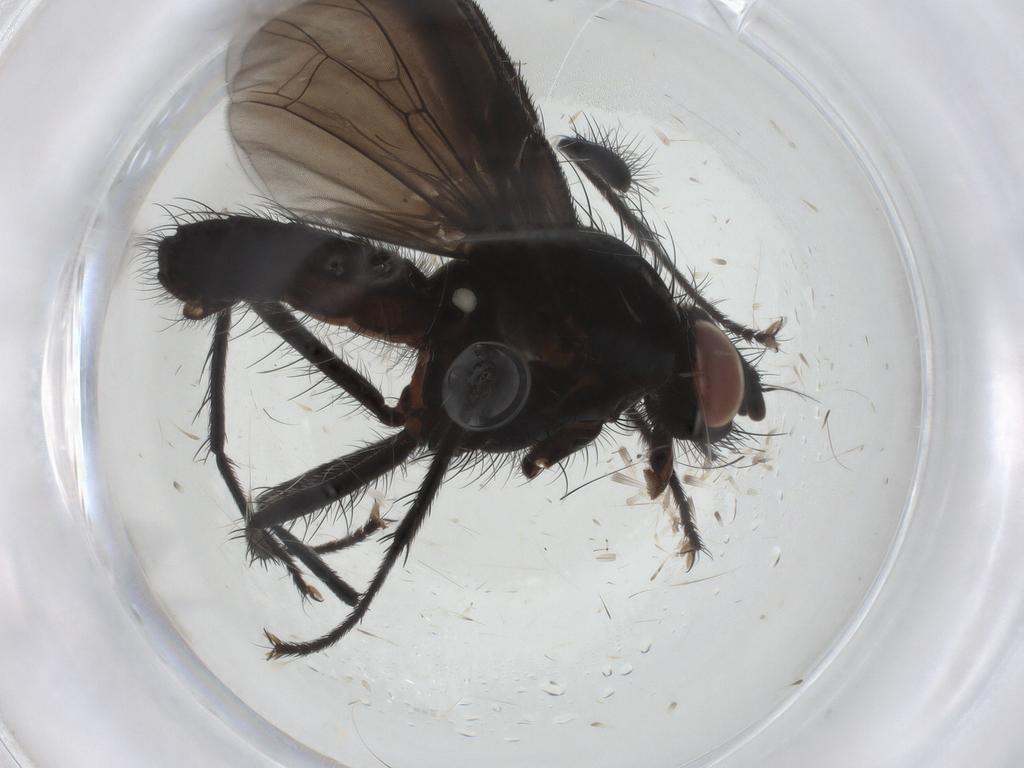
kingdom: Animalia
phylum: Arthropoda
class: Insecta
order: Diptera
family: Anthomyiidae
